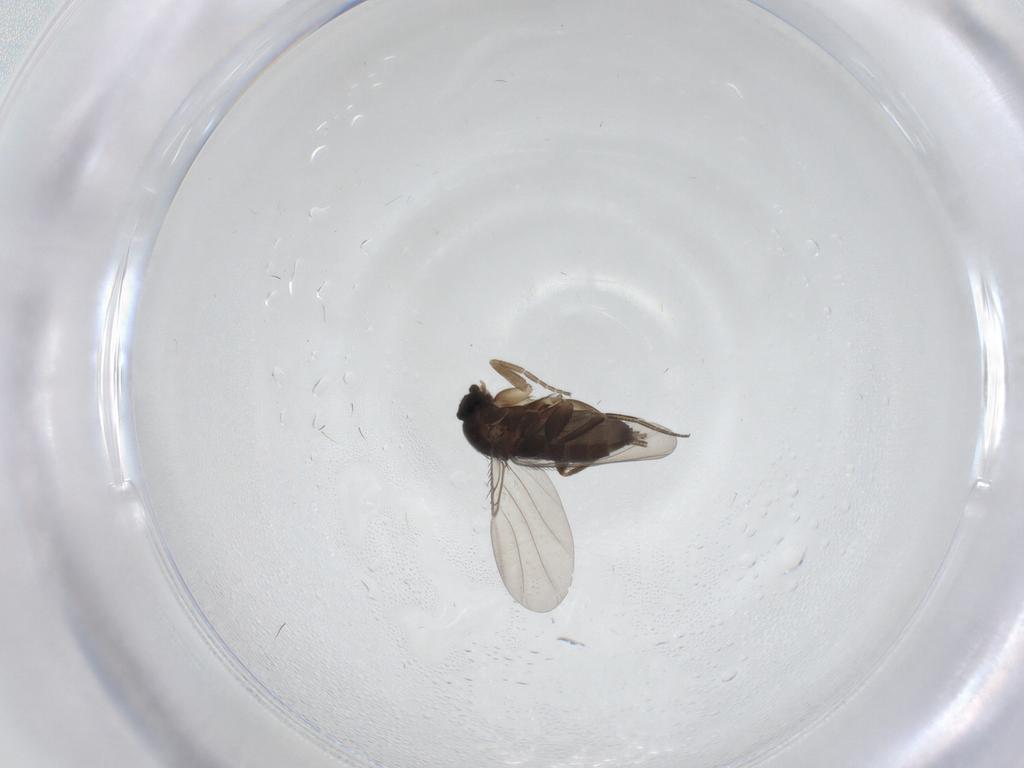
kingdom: Animalia
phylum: Arthropoda
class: Insecta
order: Diptera
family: Phoridae
